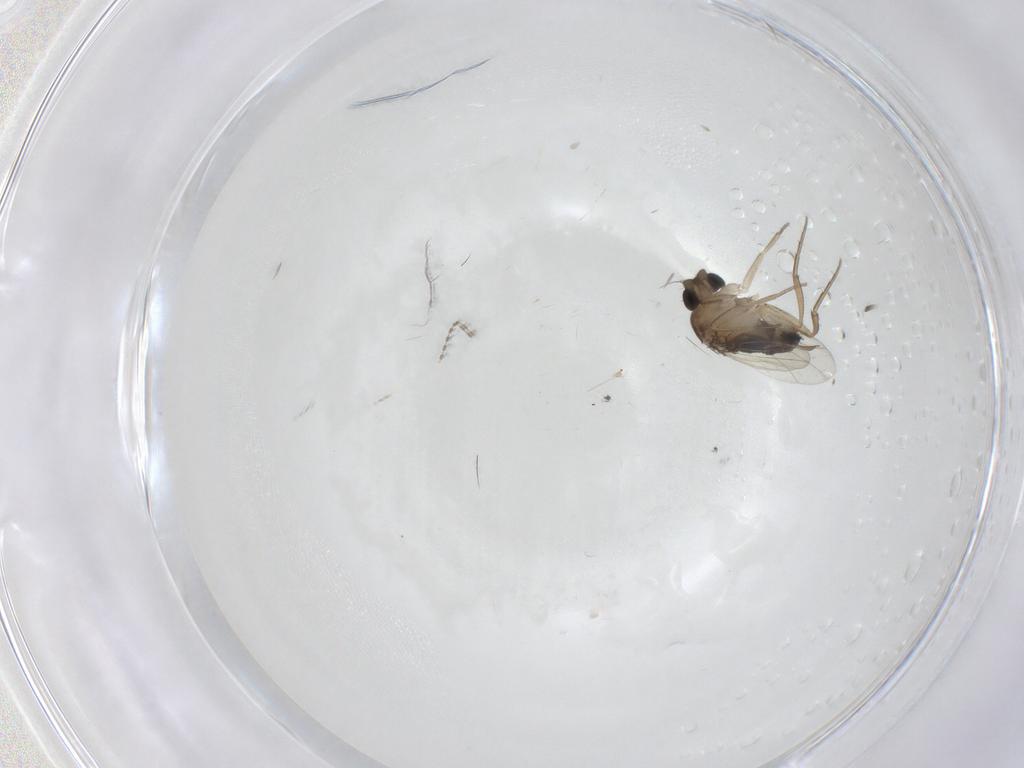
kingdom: Animalia
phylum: Arthropoda
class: Insecta
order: Diptera
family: Chironomidae
